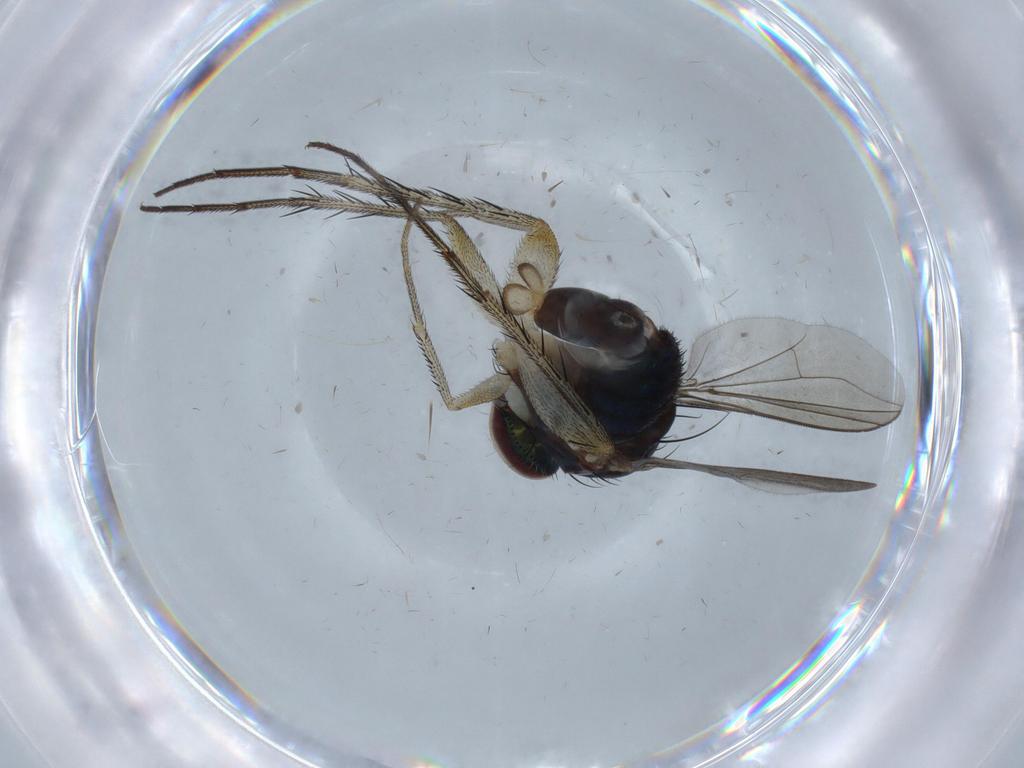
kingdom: Animalia
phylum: Arthropoda
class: Insecta
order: Diptera
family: Dolichopodidae
